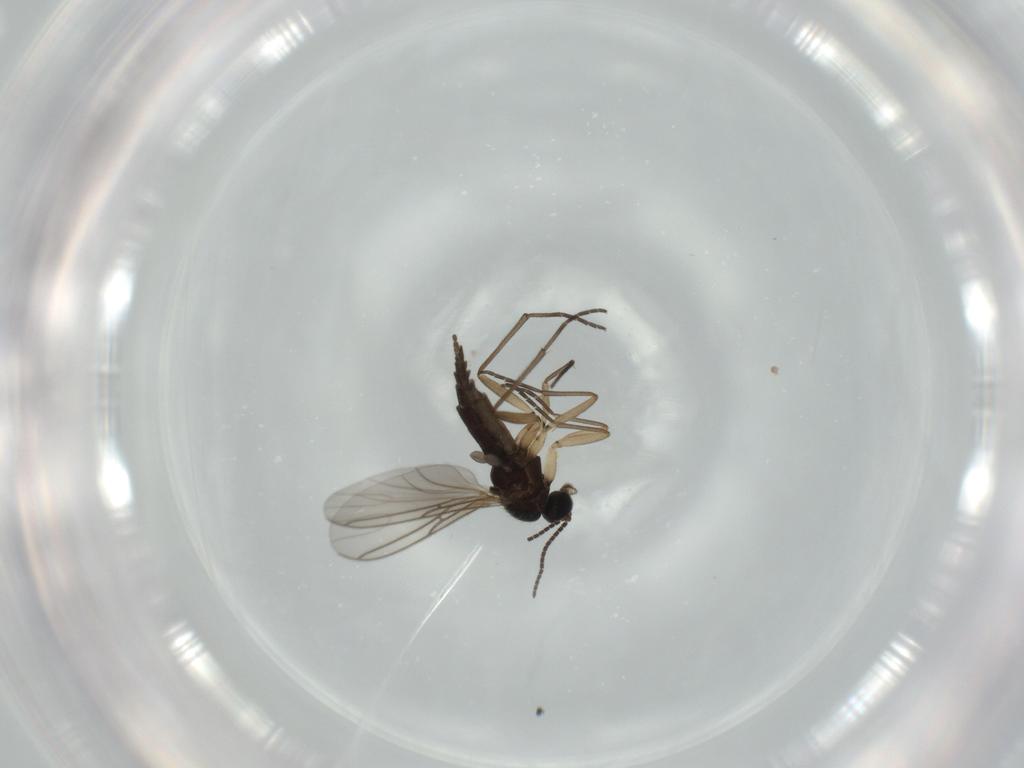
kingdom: Animalia
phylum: Arthropoda
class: Insecta
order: Diptera
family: Sciaridae
